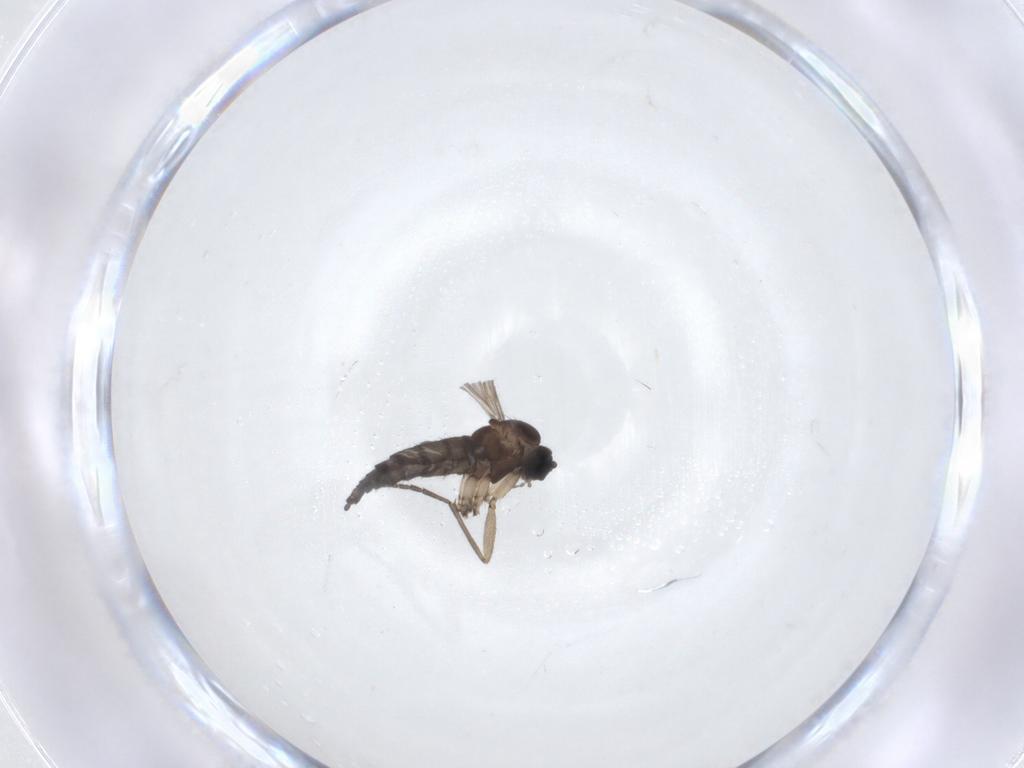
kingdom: Animalia
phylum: Arthropoda
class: Insecta
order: Diptera
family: Sciaridae
